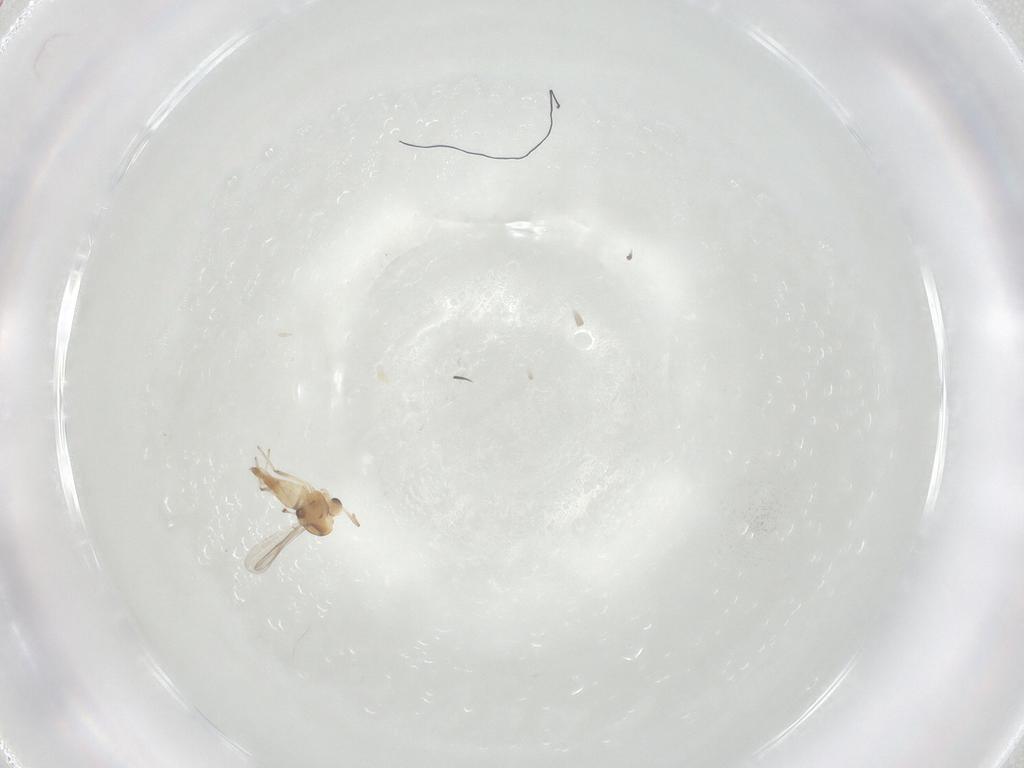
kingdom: Animalia
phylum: Arthropoda
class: Insecta
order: Diptera
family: Chironomidae
